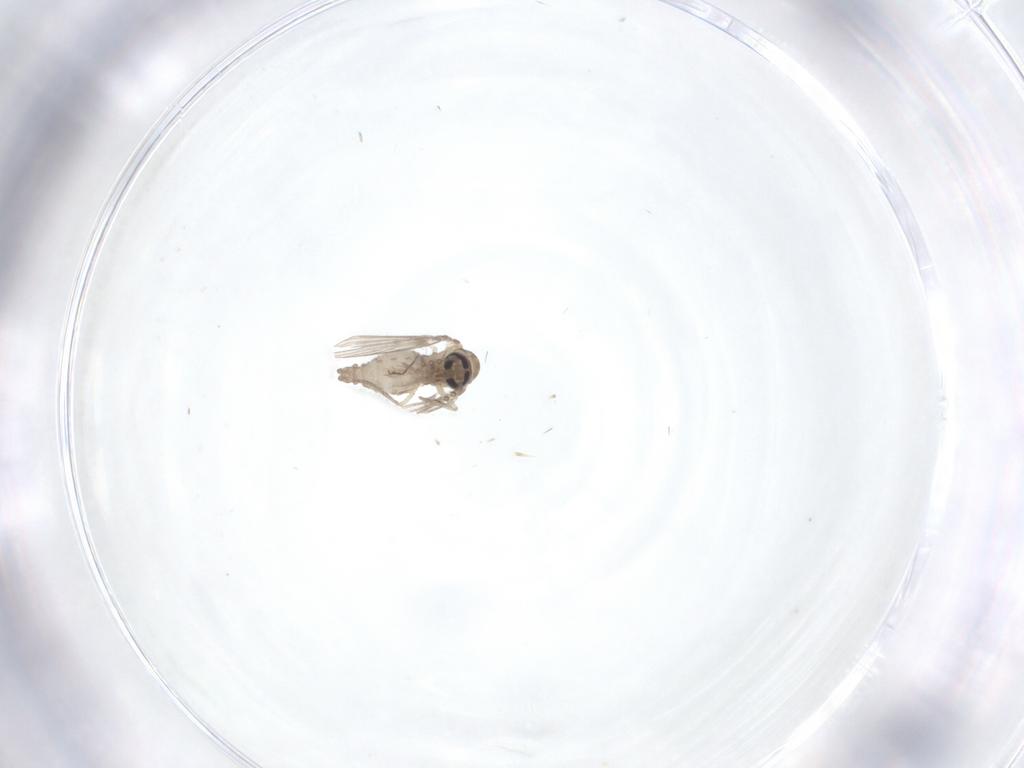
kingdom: Animalia
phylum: Arthropoda
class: Insecta
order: Diptera
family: Psychodidae
